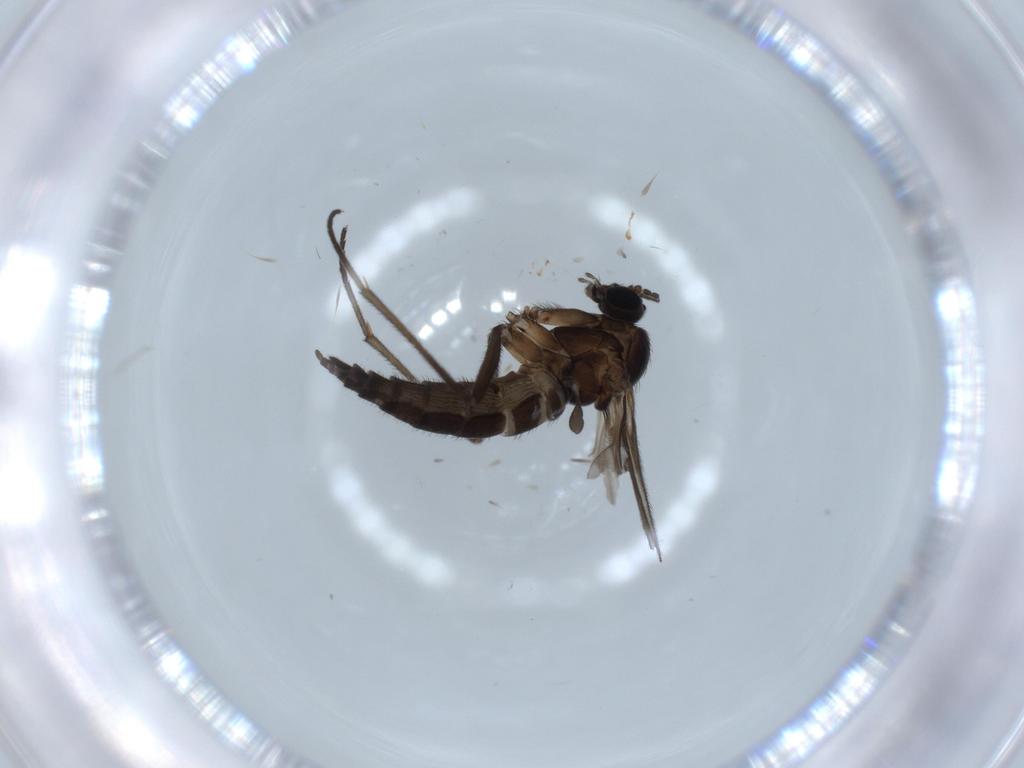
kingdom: Animalia
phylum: Arthropoda
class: Insecta
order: Diptera
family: Sciaridae
